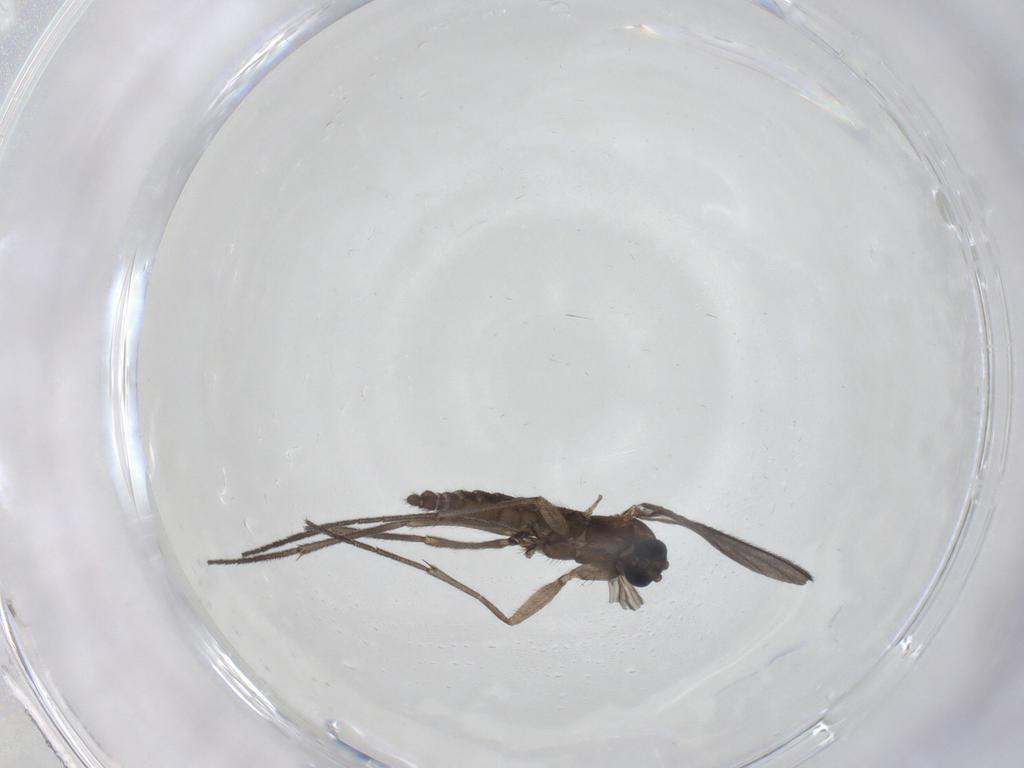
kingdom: Animalia
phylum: Arthropoda
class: Insecta
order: Diptera
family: Sciaridae
